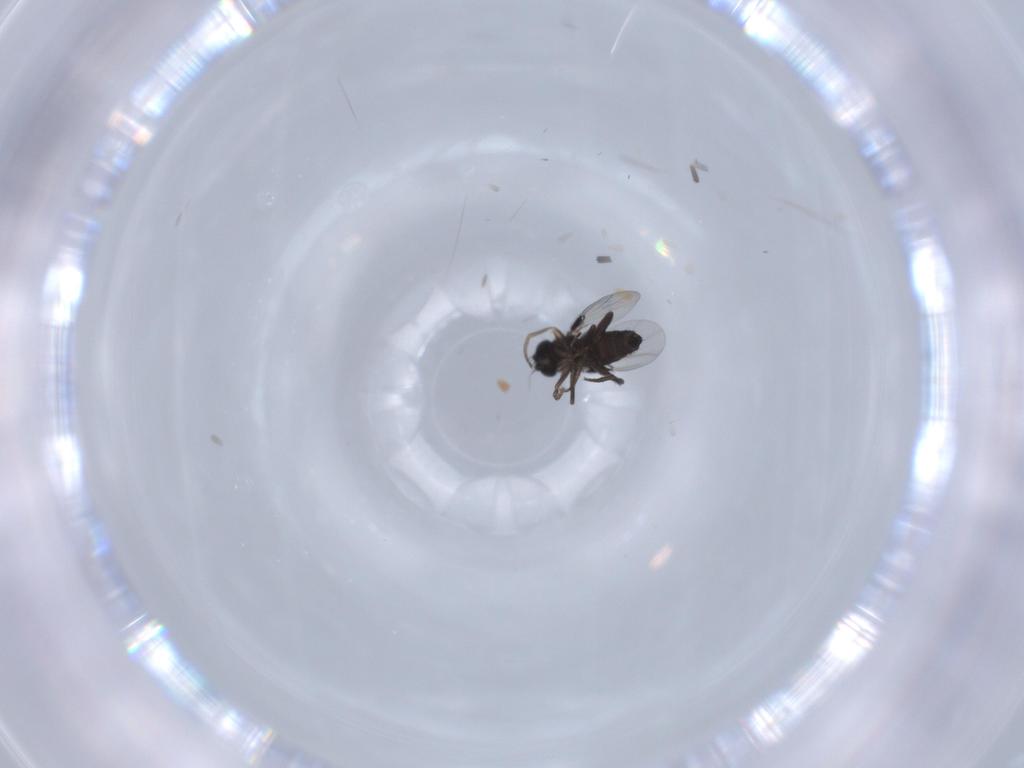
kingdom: Animalia
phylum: Arthropoda
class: Insecta
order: Diptera
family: Phoridae
